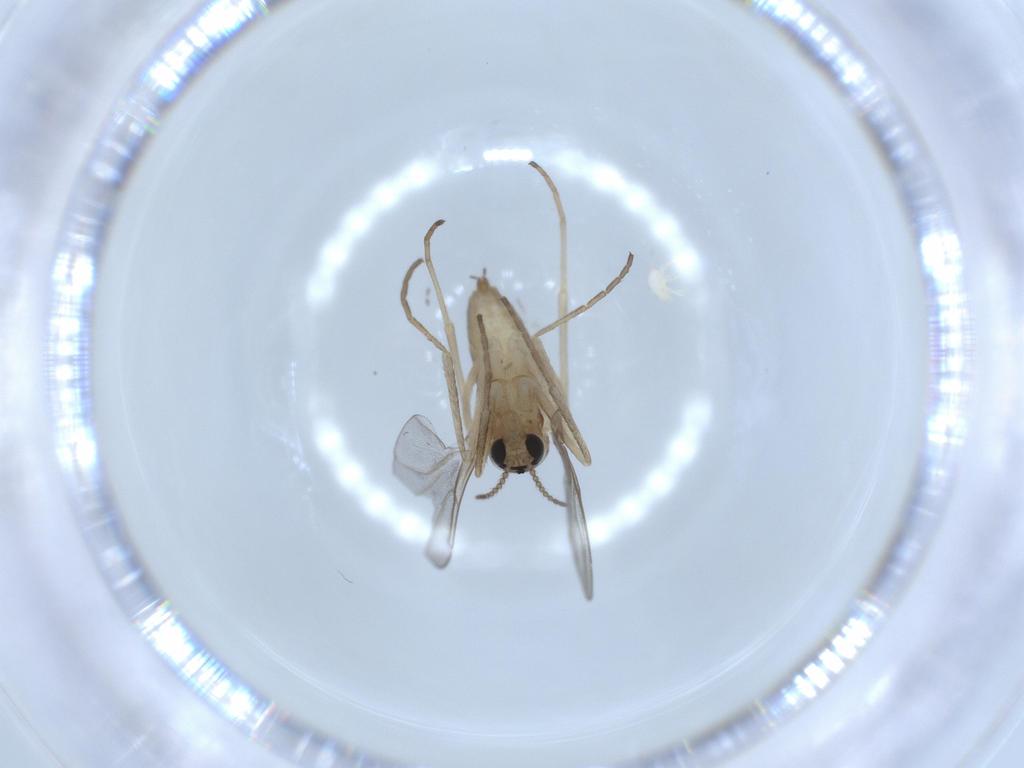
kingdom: Animalia
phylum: Arthropoda
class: Insecta
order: Diptera
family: Cecidomyiidae
